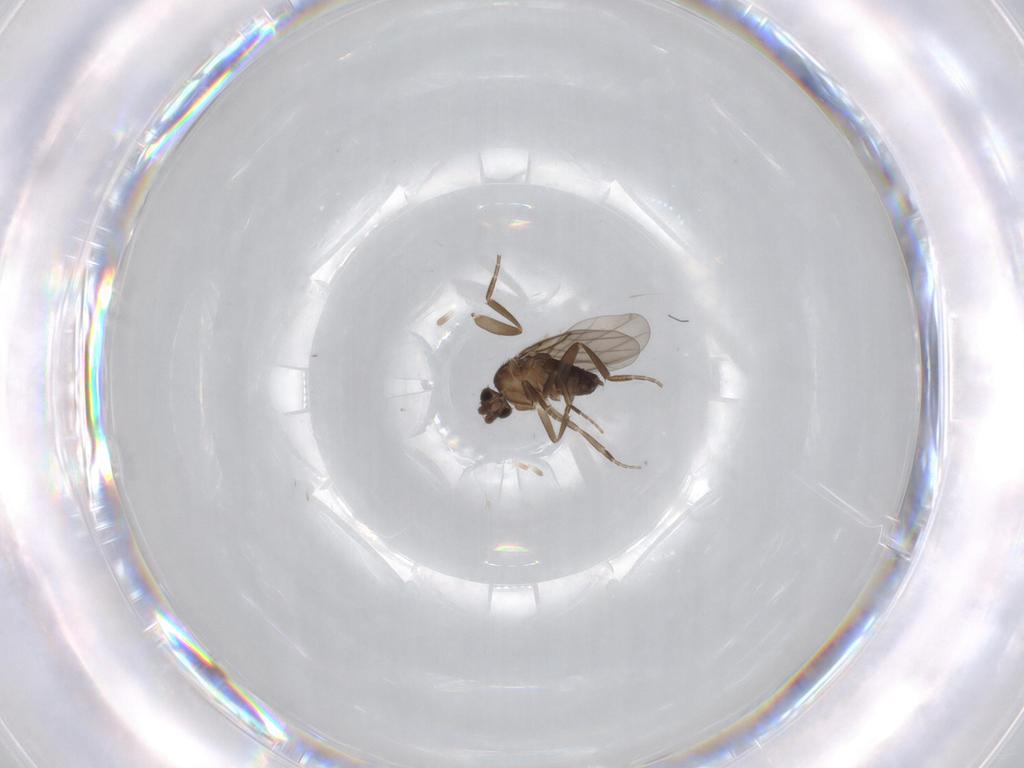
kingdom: Animalia
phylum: Arthropoda
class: Insecta
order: Diptera
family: Phoridae
